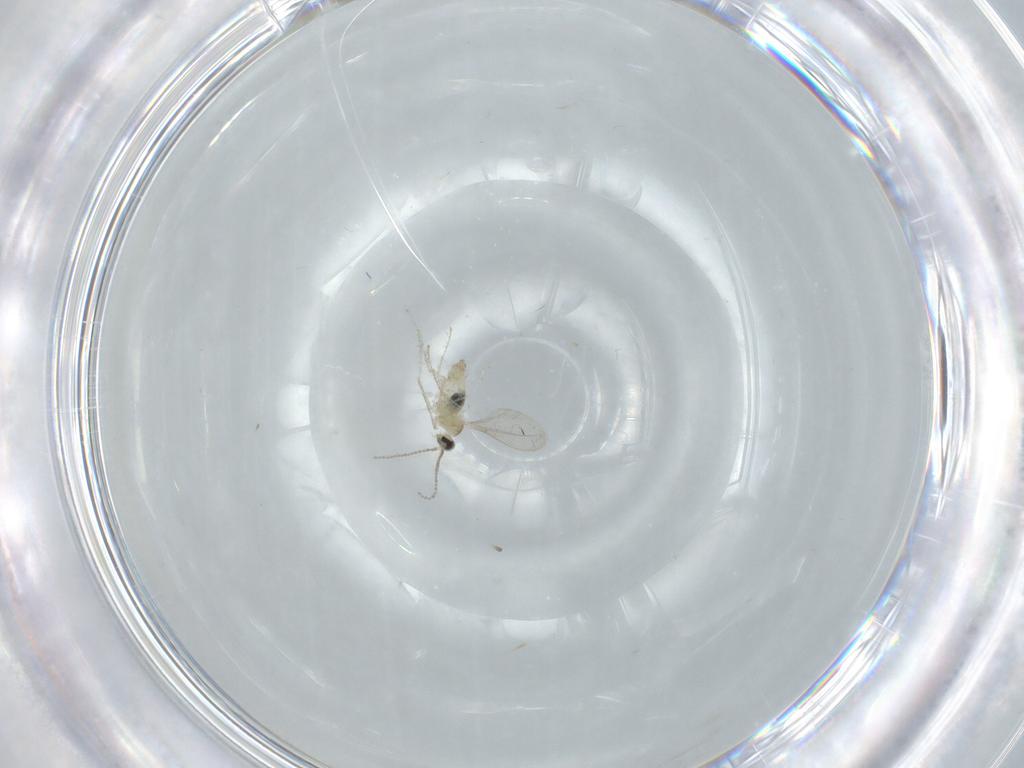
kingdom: Animalia
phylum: Arthropoda
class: Insecta
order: Diptera
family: Cecidomyiidae
